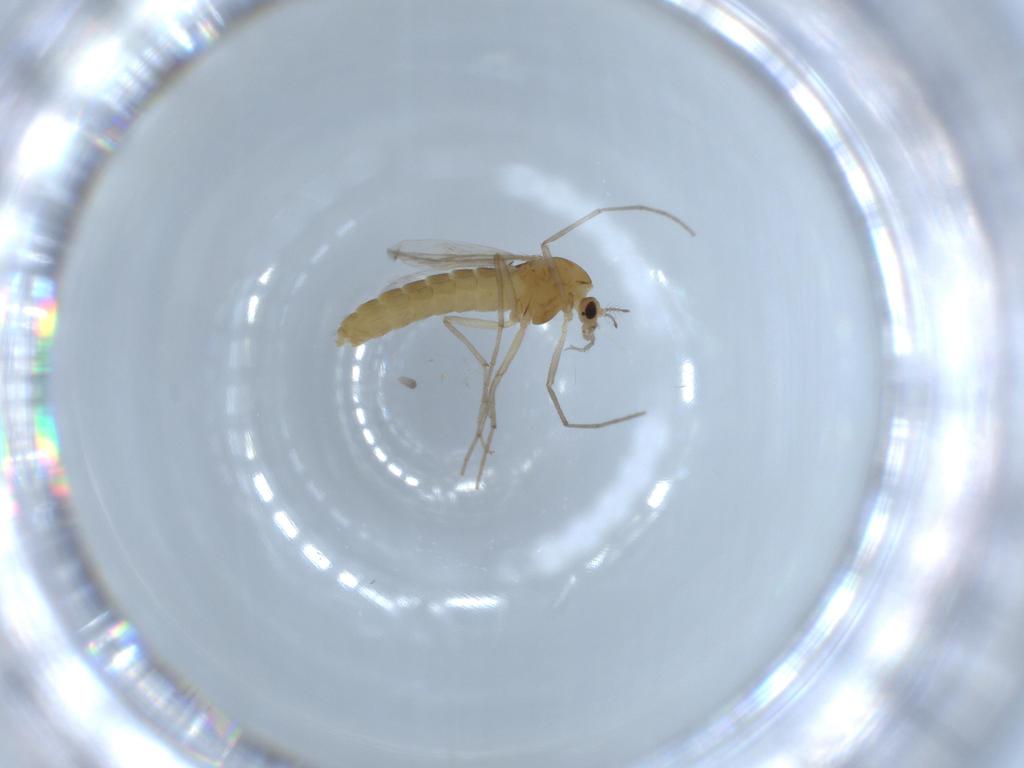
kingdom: Animalia
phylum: Arthropoda
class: Insecta
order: Diptera
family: Chironomidae
